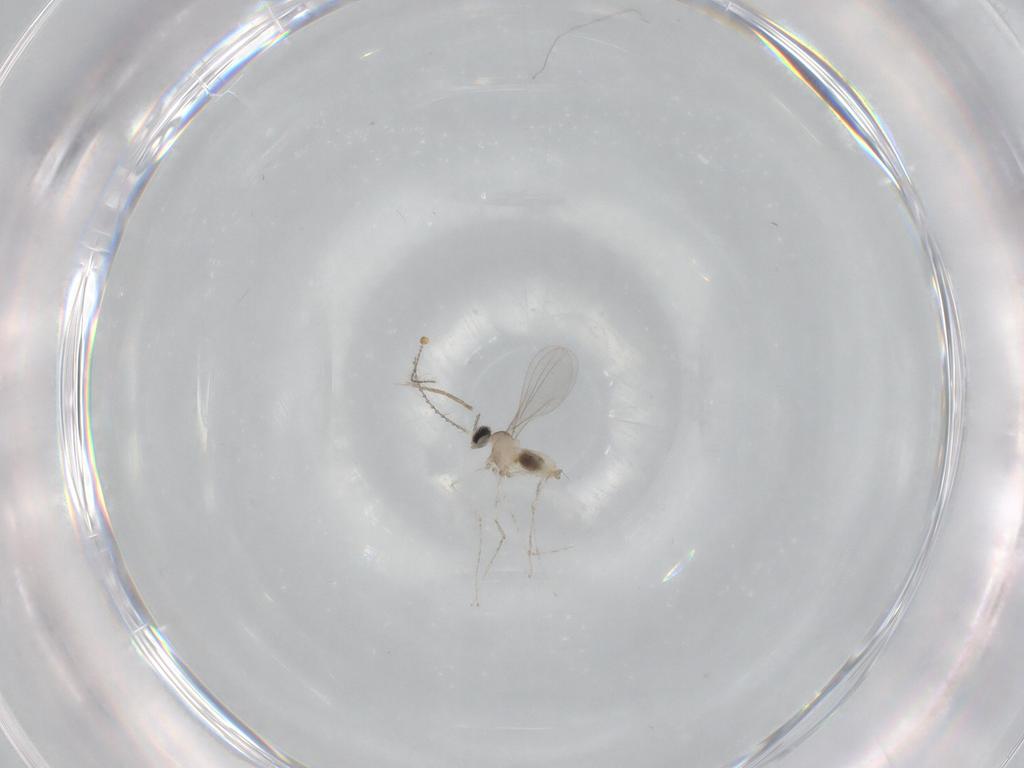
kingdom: Animalia
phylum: Arthropoda
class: Insecta
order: Diptera
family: Cecidomyiidae
